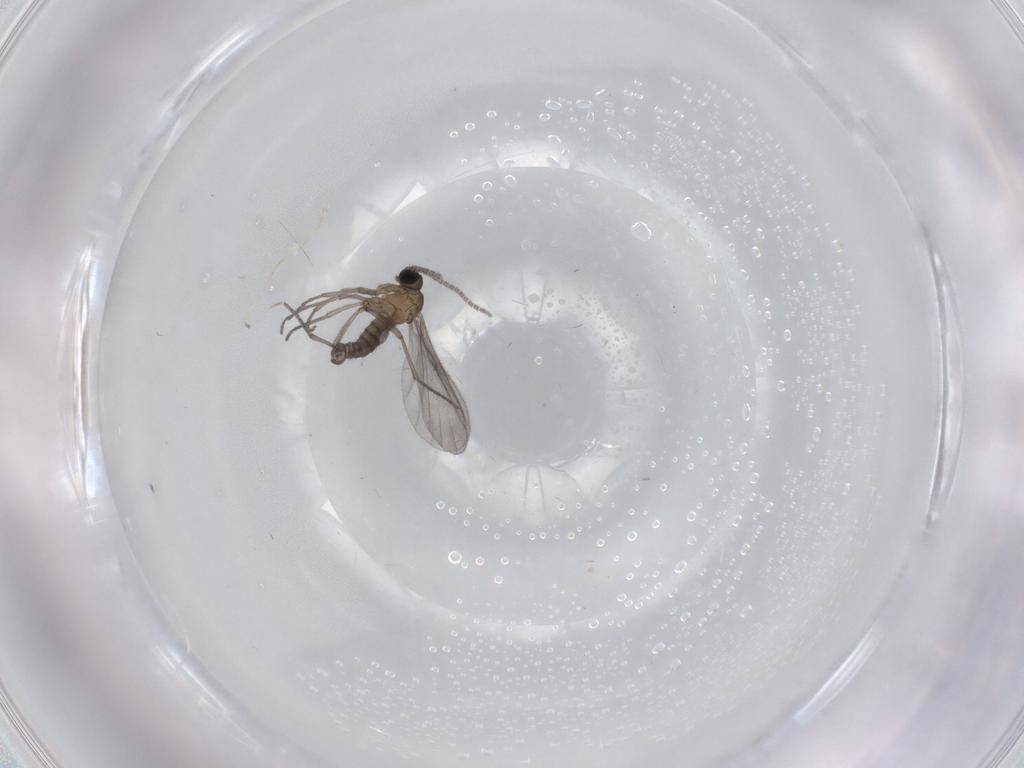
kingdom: Animalia
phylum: Arthropoda
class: Insecta
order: Diptera
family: Sciaridae
